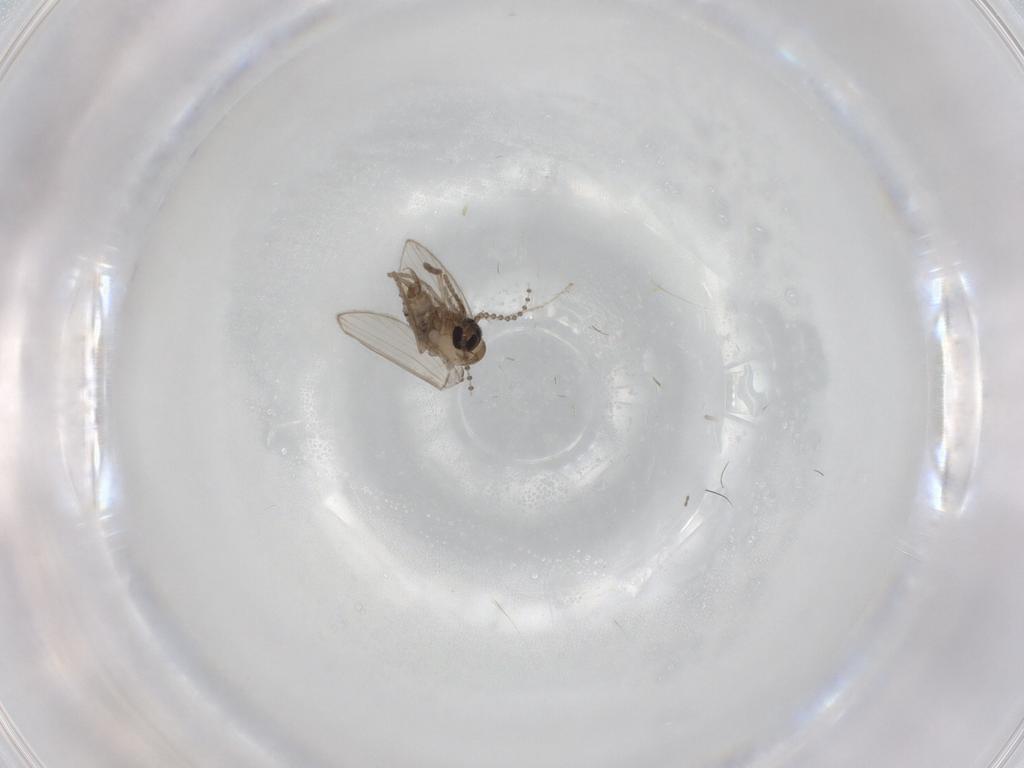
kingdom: Animalia
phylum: Arthropoda
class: Insecta
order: Diptera
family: Cecidomyiidae
